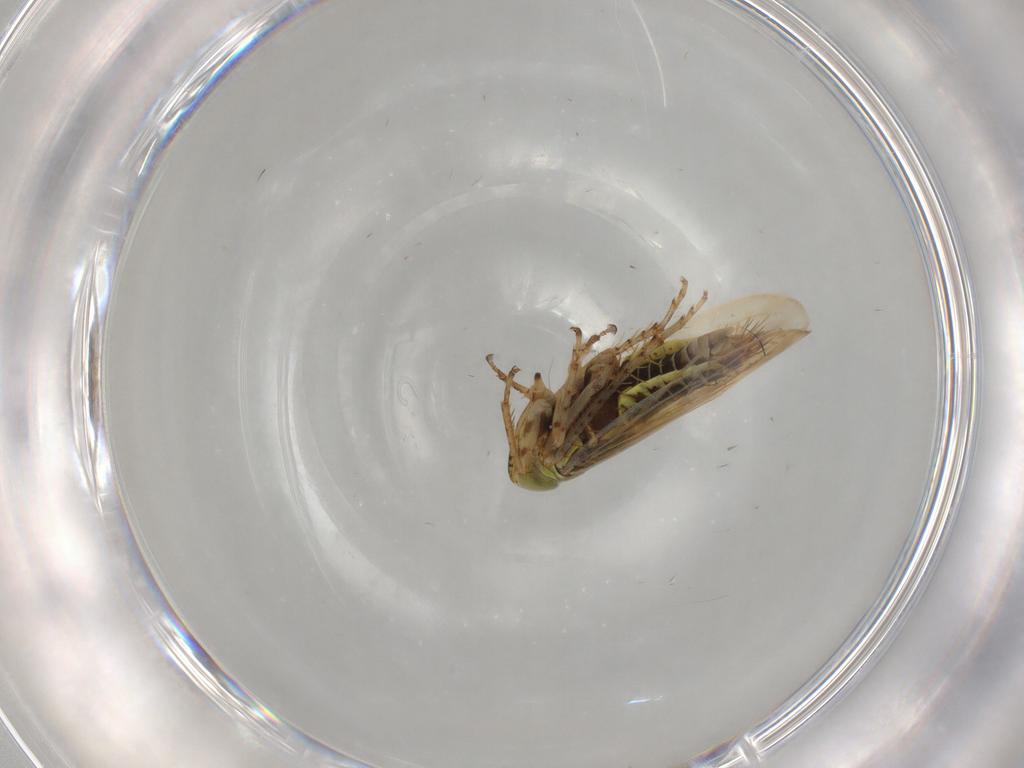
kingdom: Animalia
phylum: Arthropoda
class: Insecta
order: Hemiptera
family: Cicadellidae
